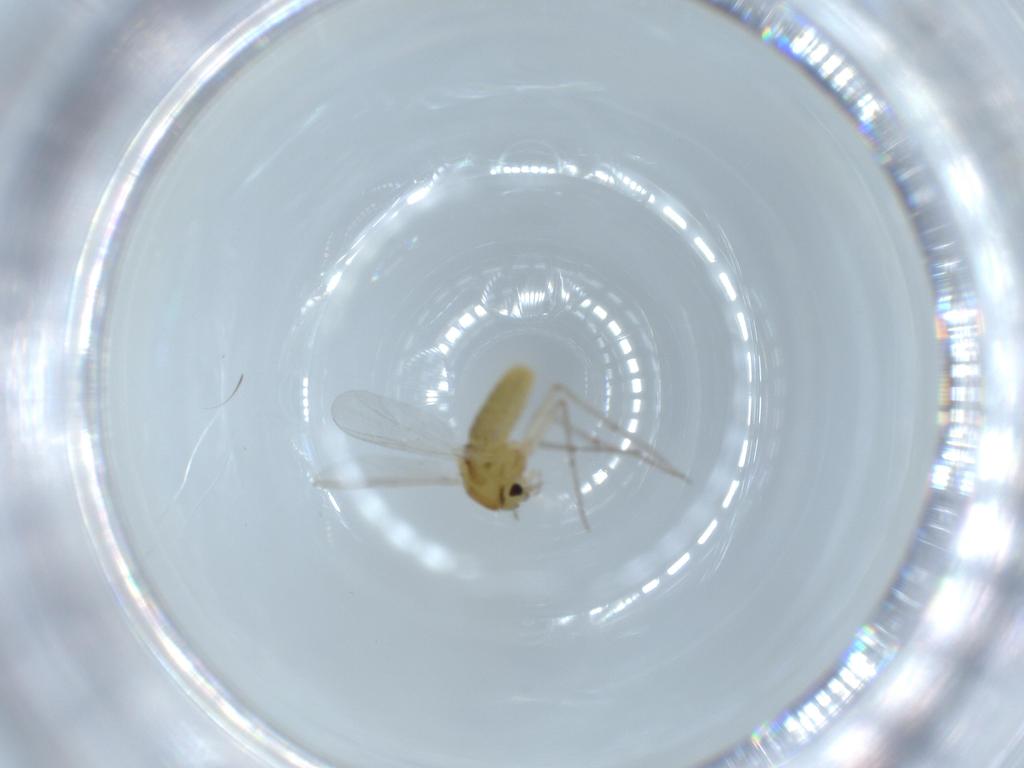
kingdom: Animalia
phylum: Arthropoda
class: Insecta
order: Diptera
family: Chironomidae
